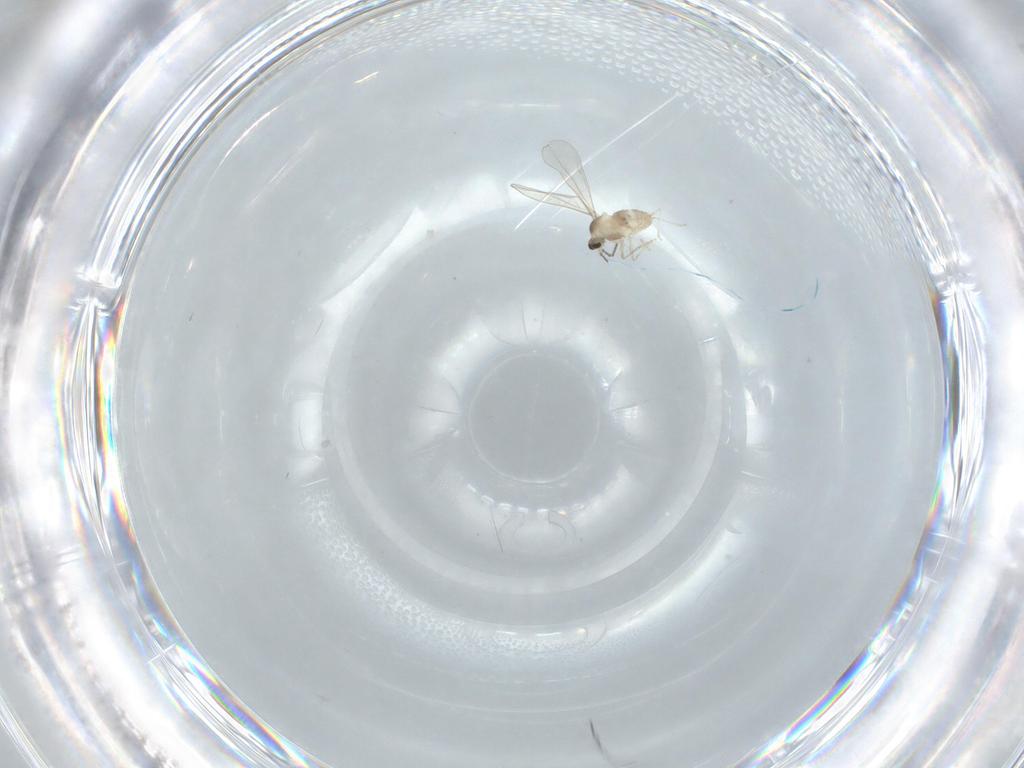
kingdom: Animalia
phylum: Arthropoda
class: Insecta
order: Diptera
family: Cecidomyiidae
